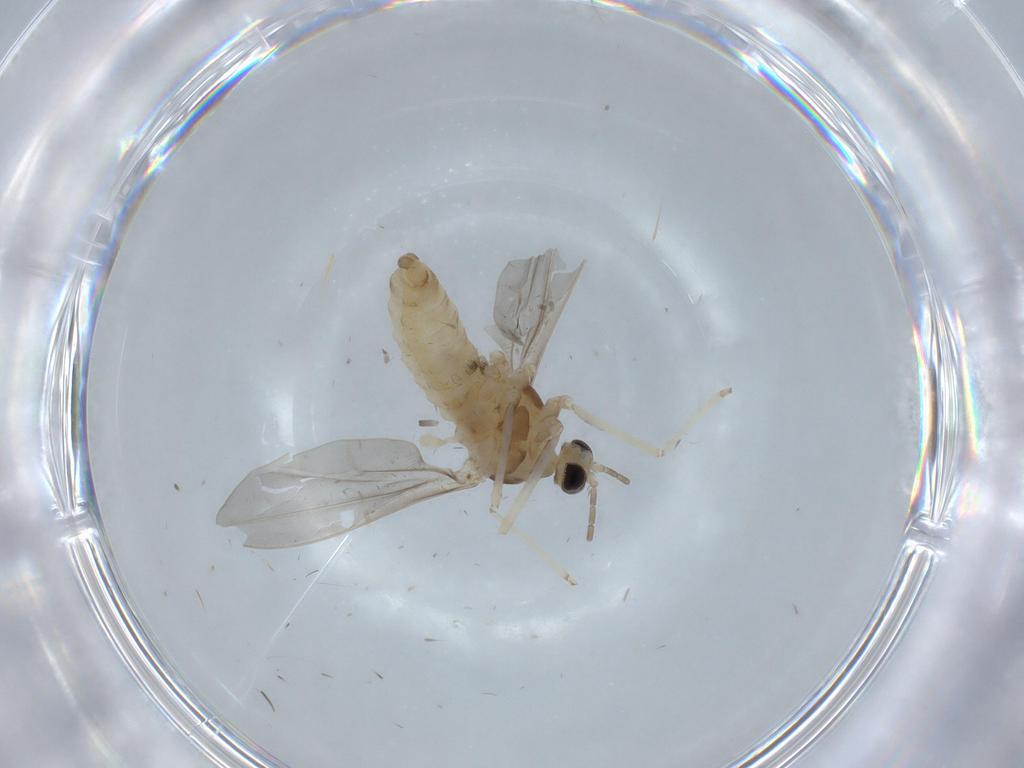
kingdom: Animalia
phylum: Arthropoda
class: Insecta
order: Diptera
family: Cecidomyiidae
